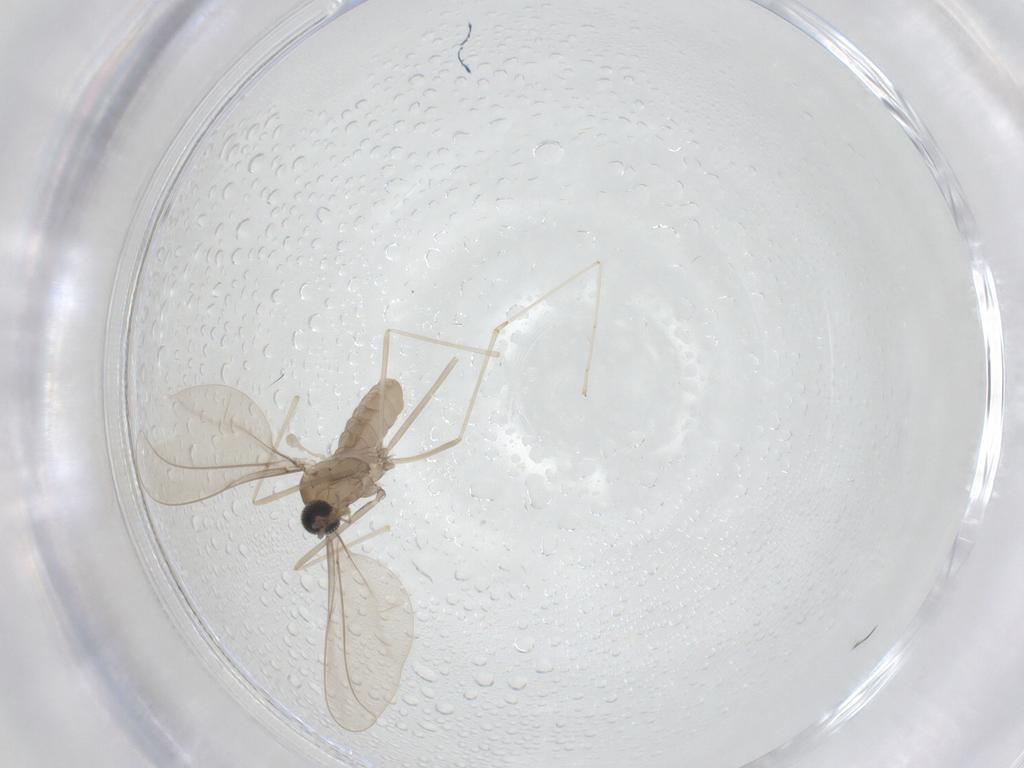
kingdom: Animalia
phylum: Arthropoda
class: Insecta
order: Diptera
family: Cecidomyiidae
